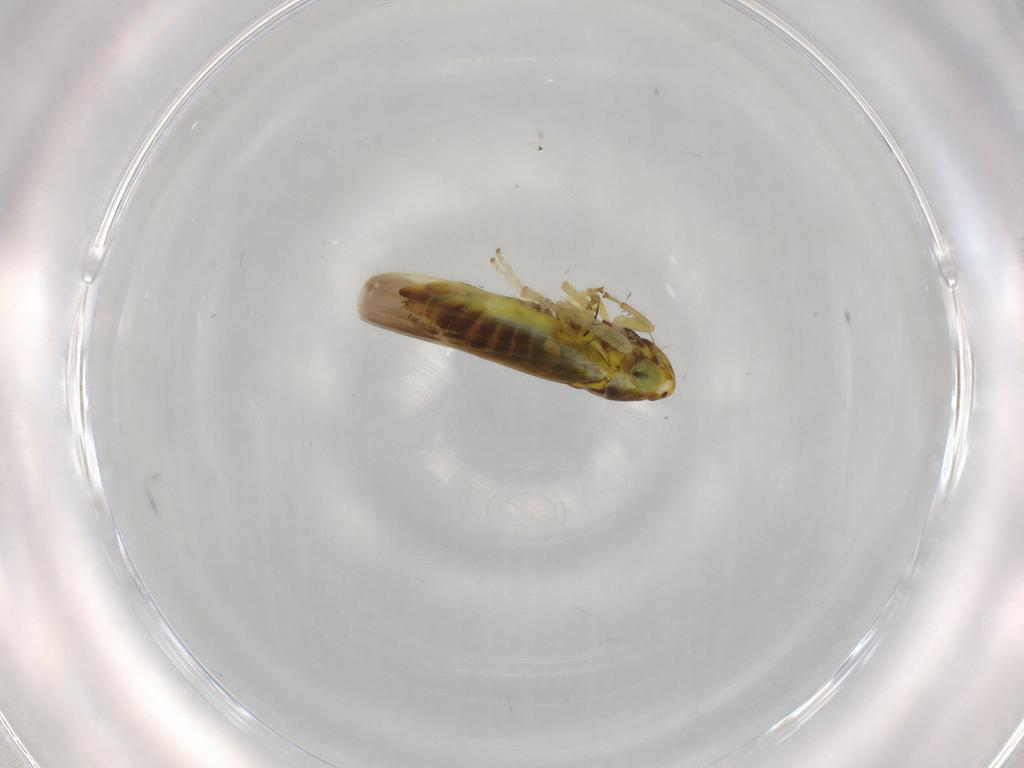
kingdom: Animalia
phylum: Arthropoda
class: Insecta
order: Hemiptera
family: Cicadellidae
